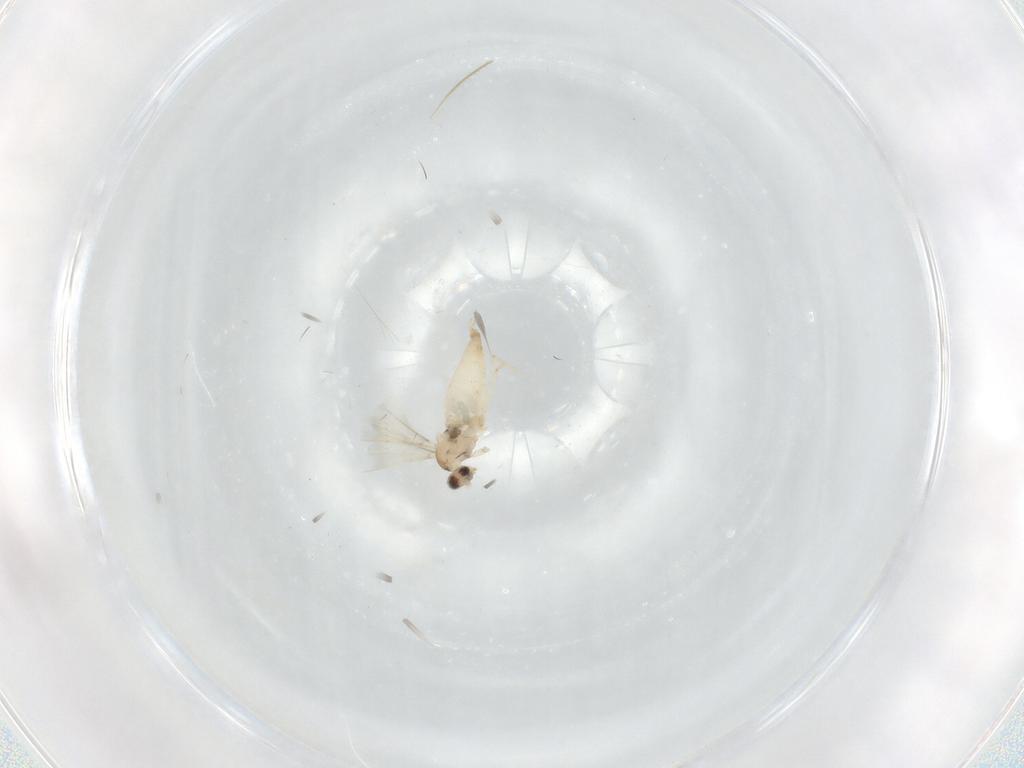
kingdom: Animalia
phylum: Arthropoda
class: Insecta
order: Diptera
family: Cecidomyiidae
